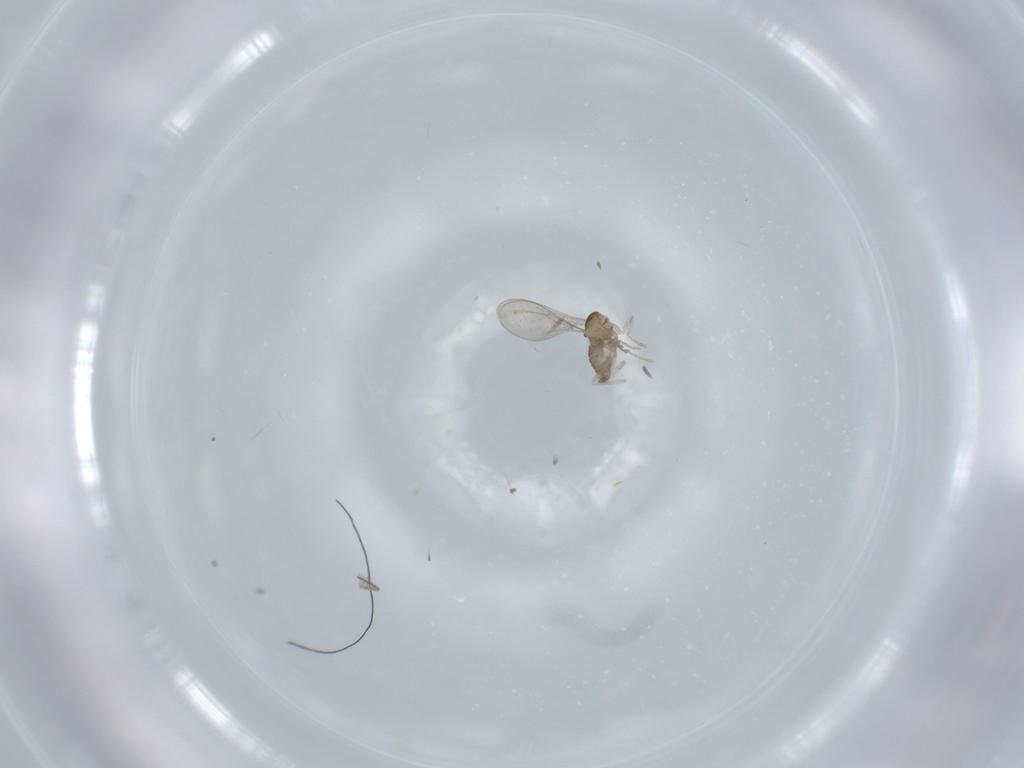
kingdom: Animalia
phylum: Arthropoda
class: Insecta
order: Diptera
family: Cecidomyiidae
